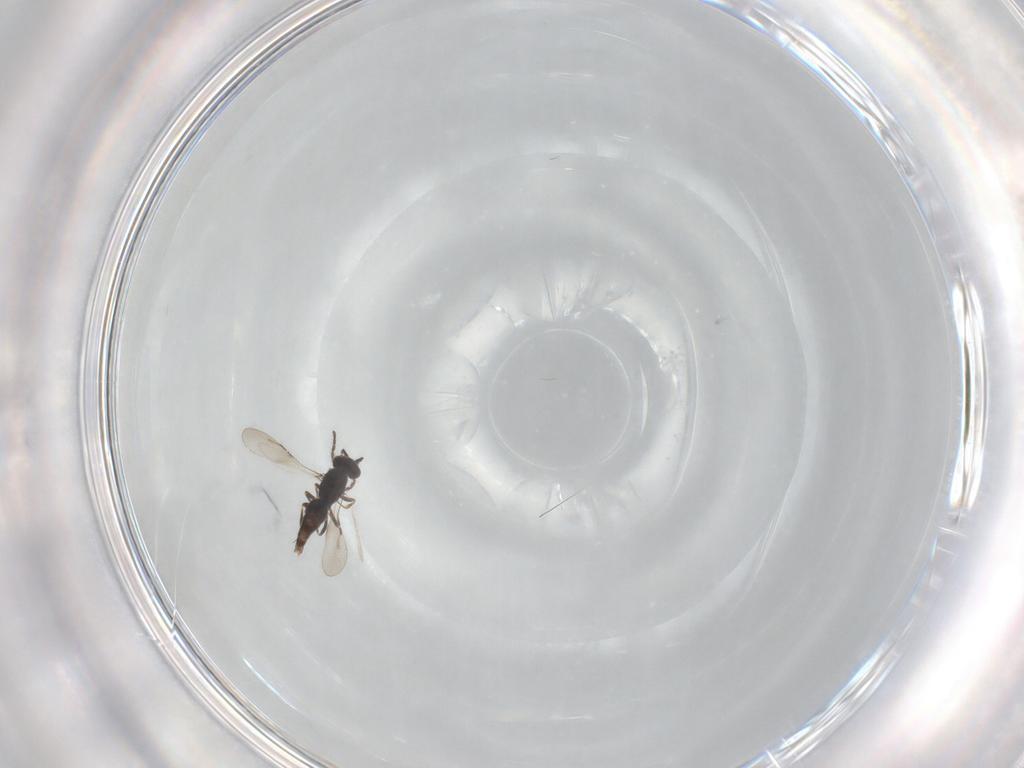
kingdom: Animalia
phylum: Arthropoda
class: Insecta
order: Hymenoptera
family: Ceraphronidae
